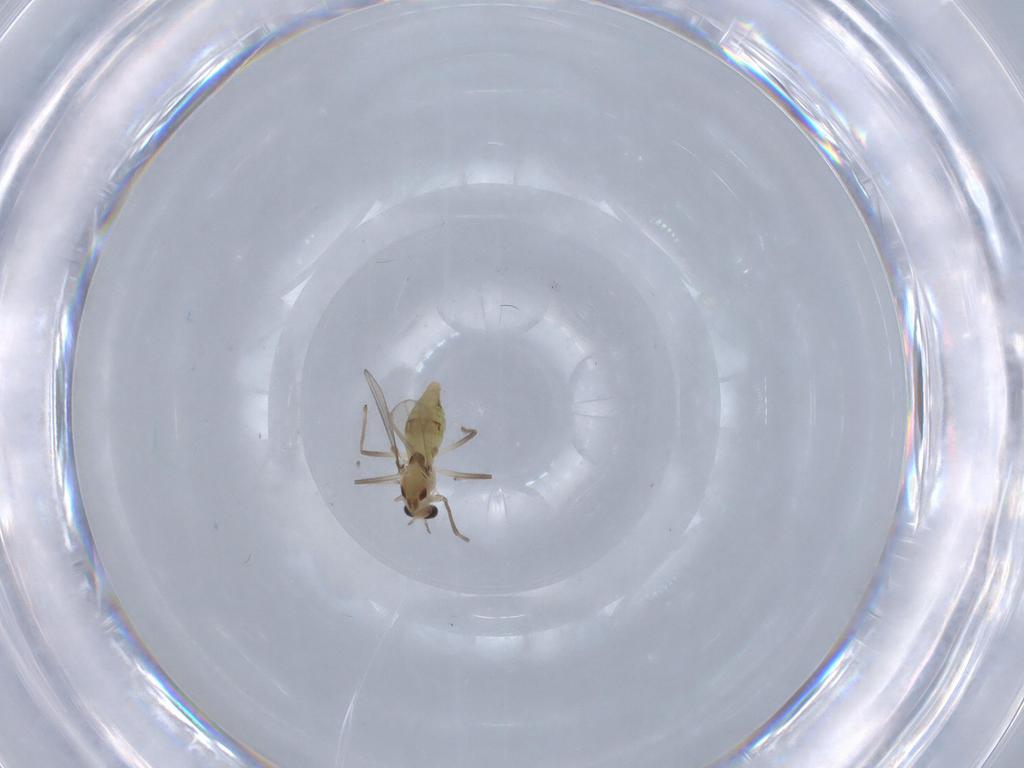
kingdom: Animalia
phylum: Arthropoda
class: Insecta
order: Diptera
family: Chironomidae
